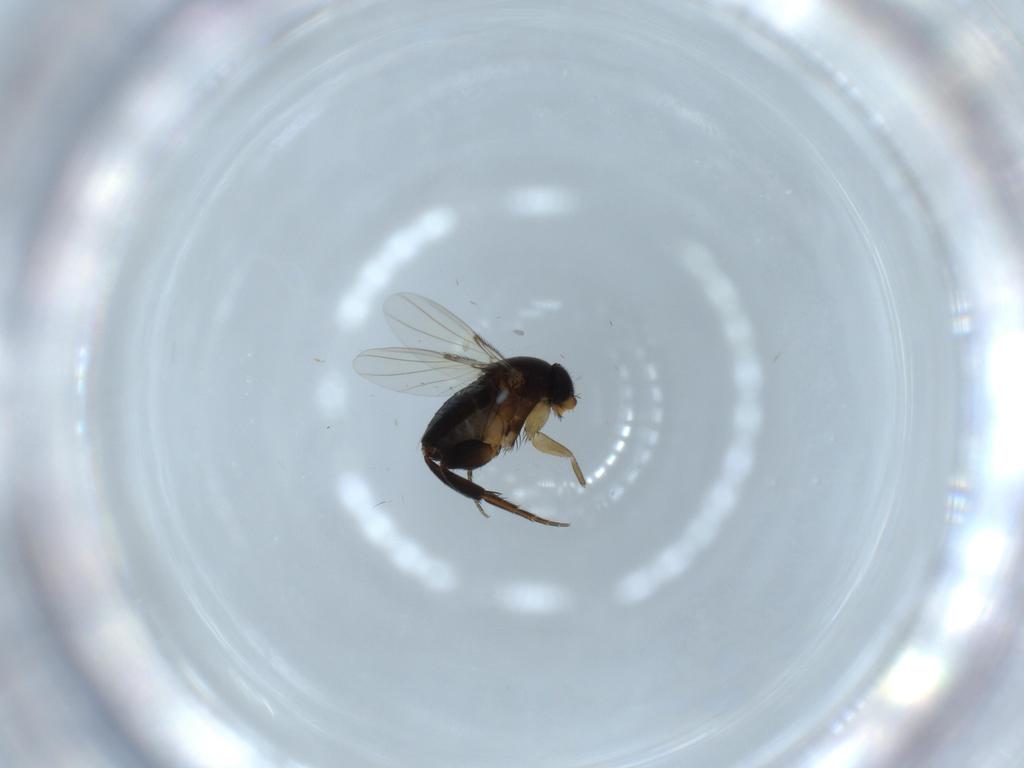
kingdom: Animalia
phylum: Arthropoda
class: Insecta
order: Diptera
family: Phoridae
